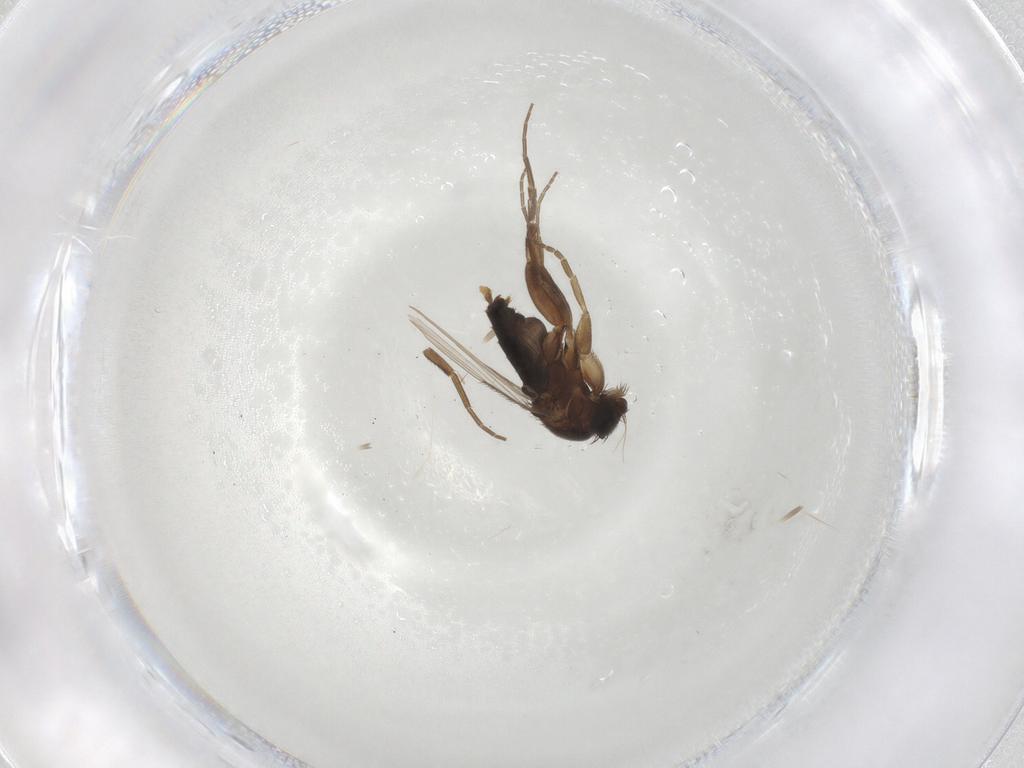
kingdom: Animalia
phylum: Arthropoda
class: Insecta
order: Diptera
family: Phoridae
